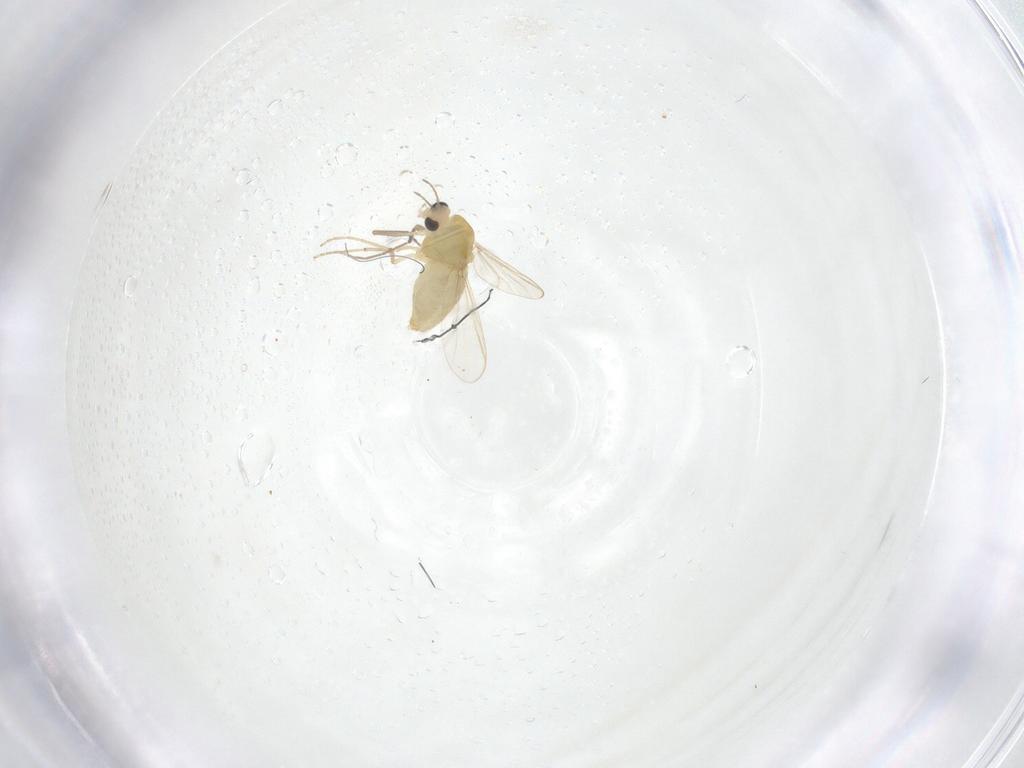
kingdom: Animalia
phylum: Arthropoda
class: Insecta
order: Diptera
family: Chironomidae
